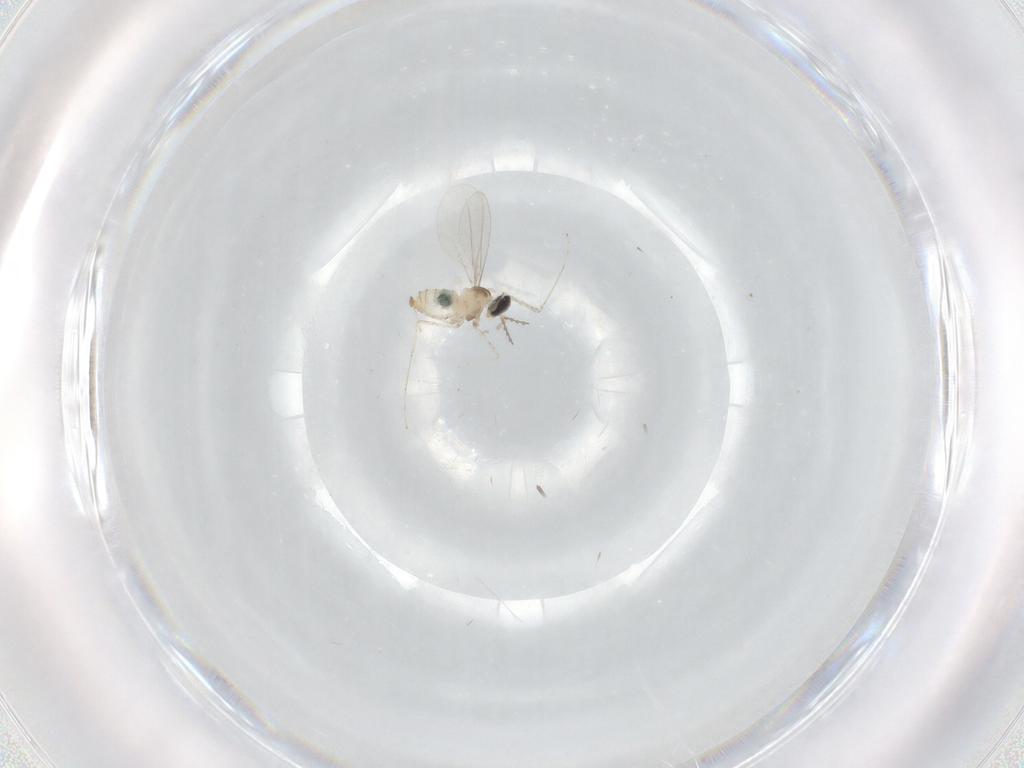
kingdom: Animalia
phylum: Arthropoda
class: Insecta
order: Diptera
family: Cecidomyiidae
